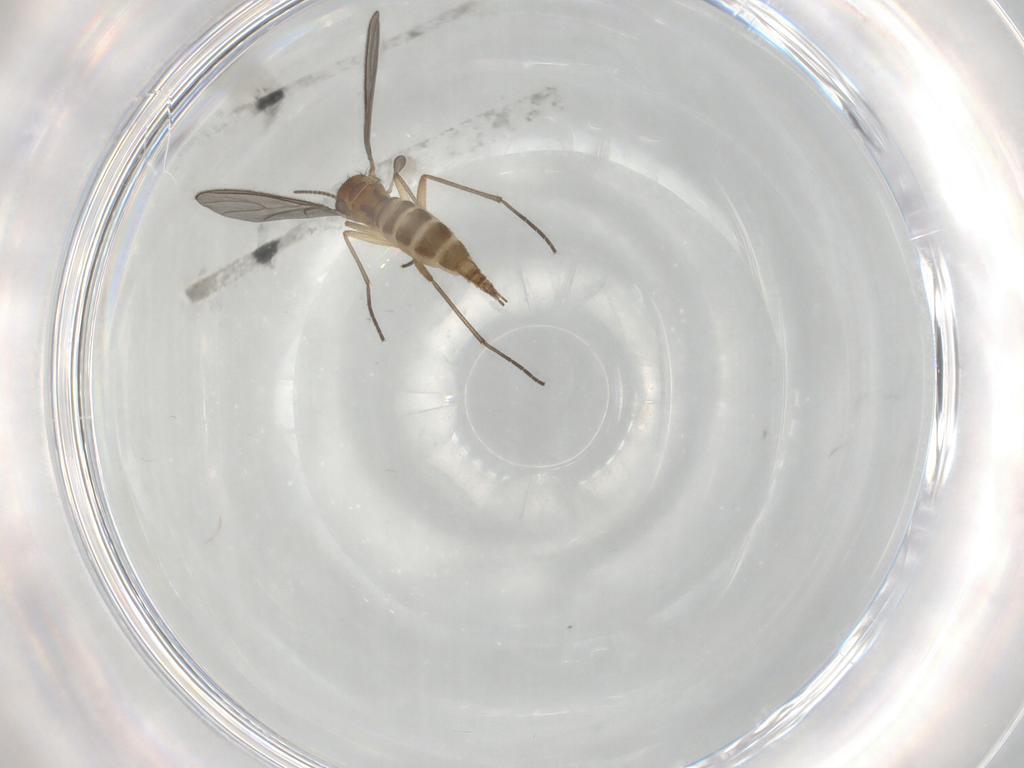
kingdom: Animalia
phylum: Arthropoda
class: Insecta
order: Diptera
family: Sciaridae
